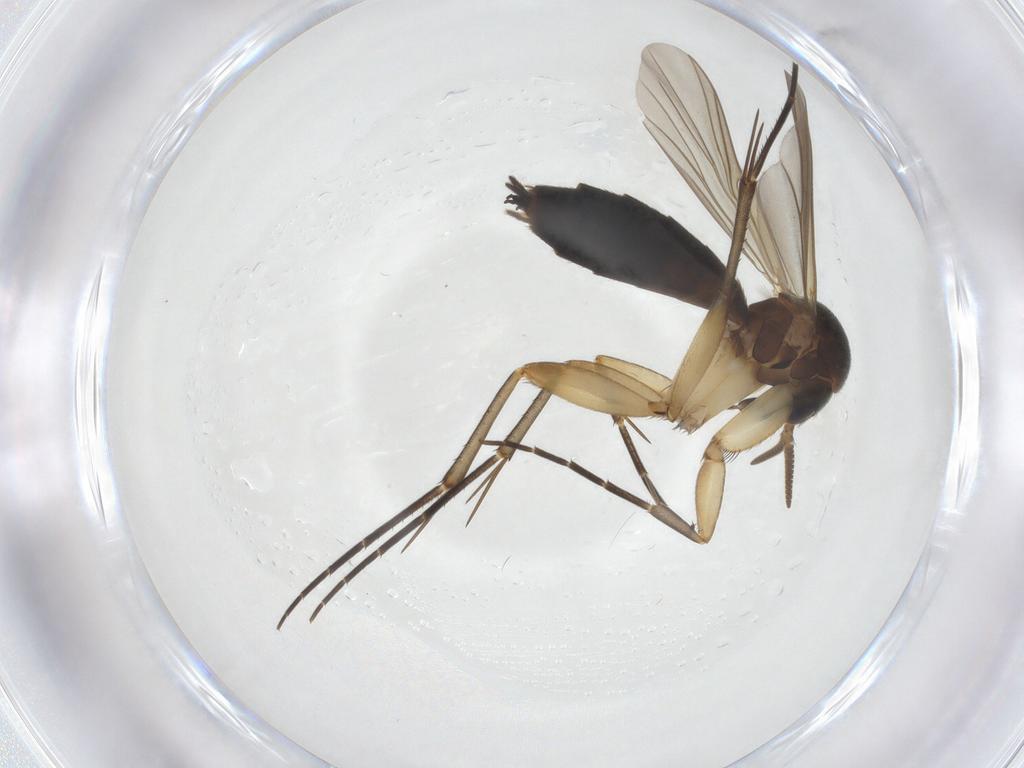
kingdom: Animalia
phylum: Arthropoda
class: Insecta
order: Diptera
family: Mycetophilidae
